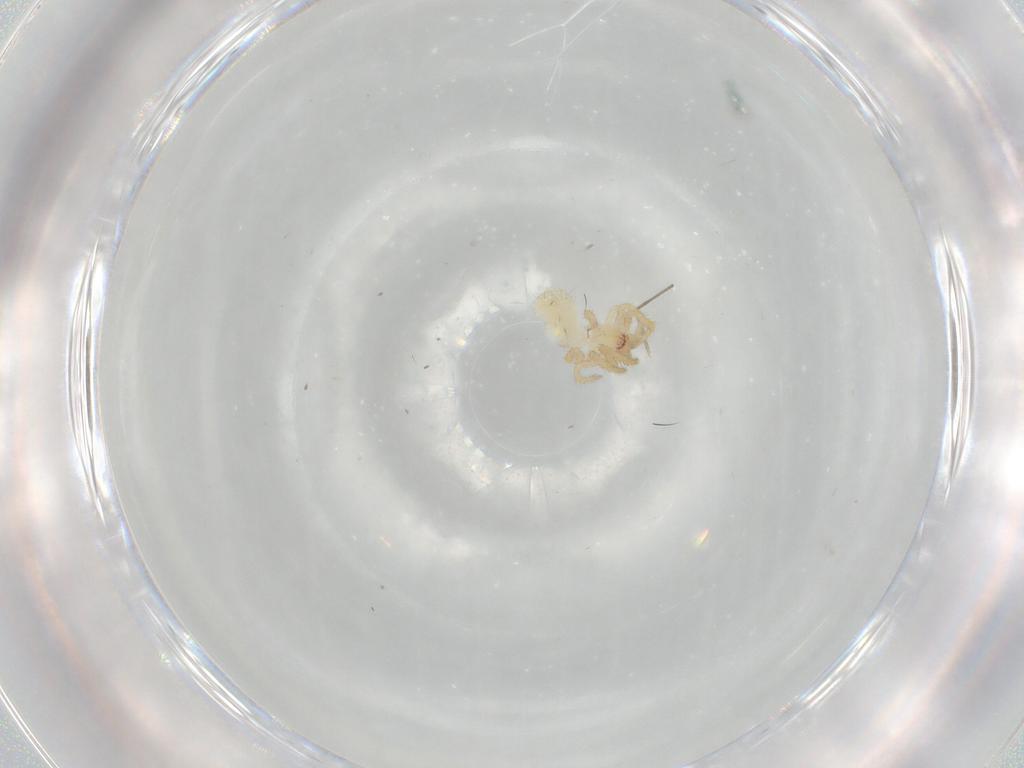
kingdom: Animalia
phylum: Arthropoda
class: Arachnida
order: Araneae
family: Theridiidae
